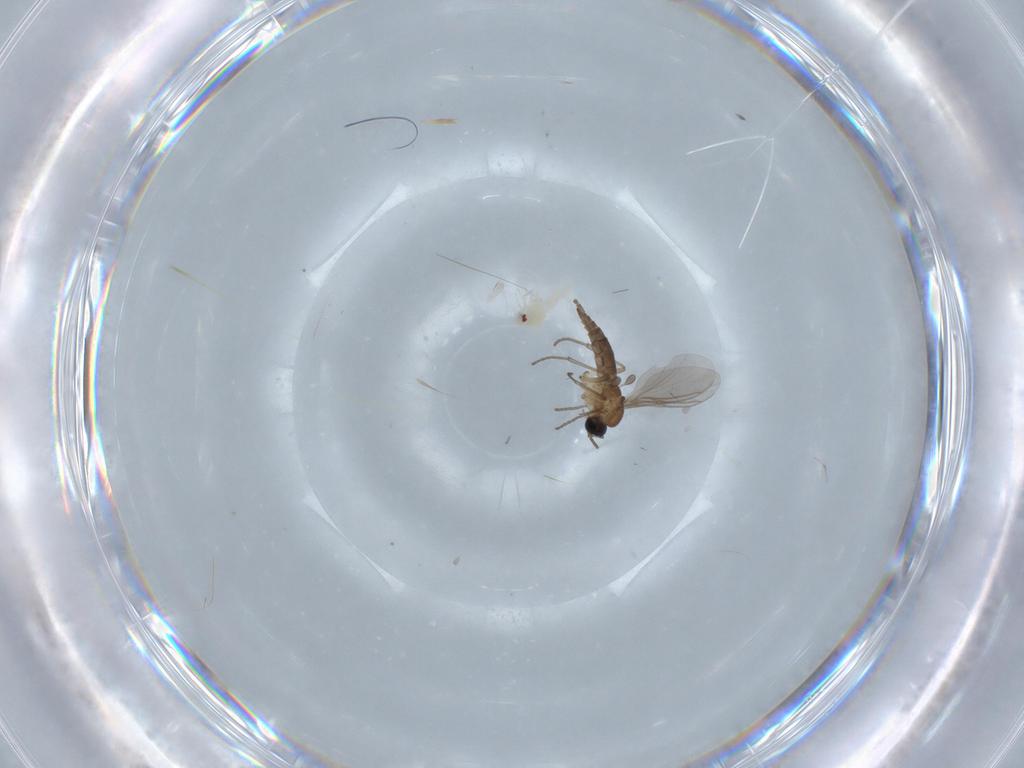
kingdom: Animalia
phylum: Arthropoda
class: Insecta
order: Diptera
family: Sciaridae
